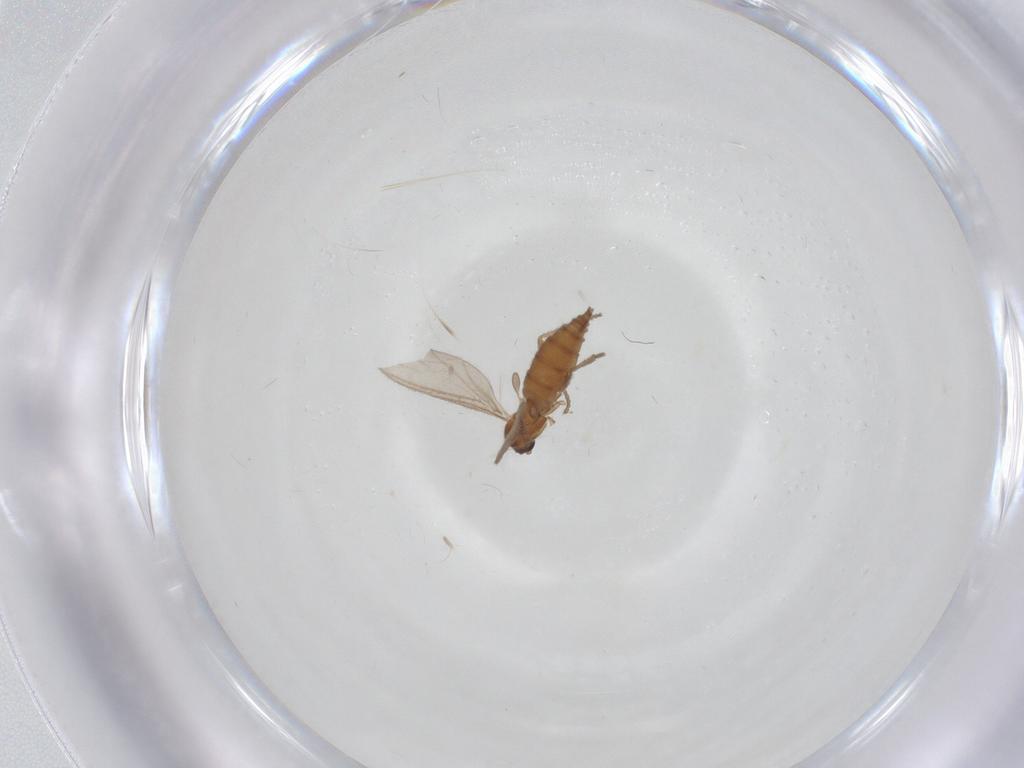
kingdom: Animalia
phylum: Arthropoda
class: Insecta
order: Diptera
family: Sciaridae
